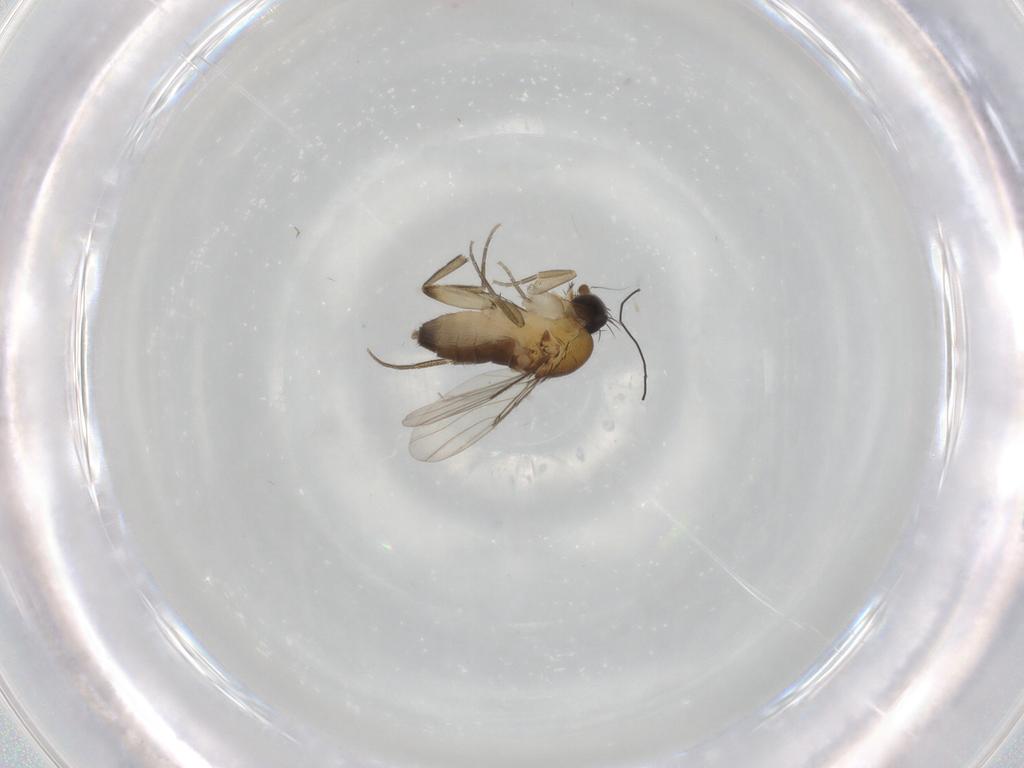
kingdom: Animalia
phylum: Arthropoda
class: Insecta
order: Diptera
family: Phoridae
